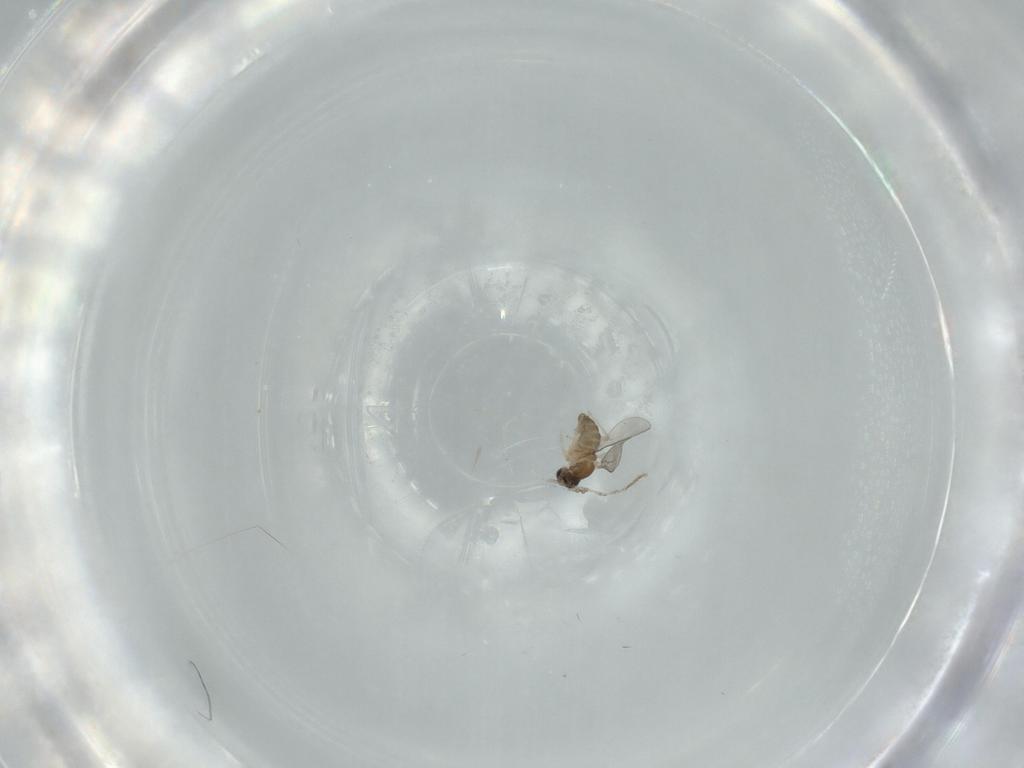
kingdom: Animalia
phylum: Arthropoda
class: Insecta
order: Diptera
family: Cecidomyiidae
